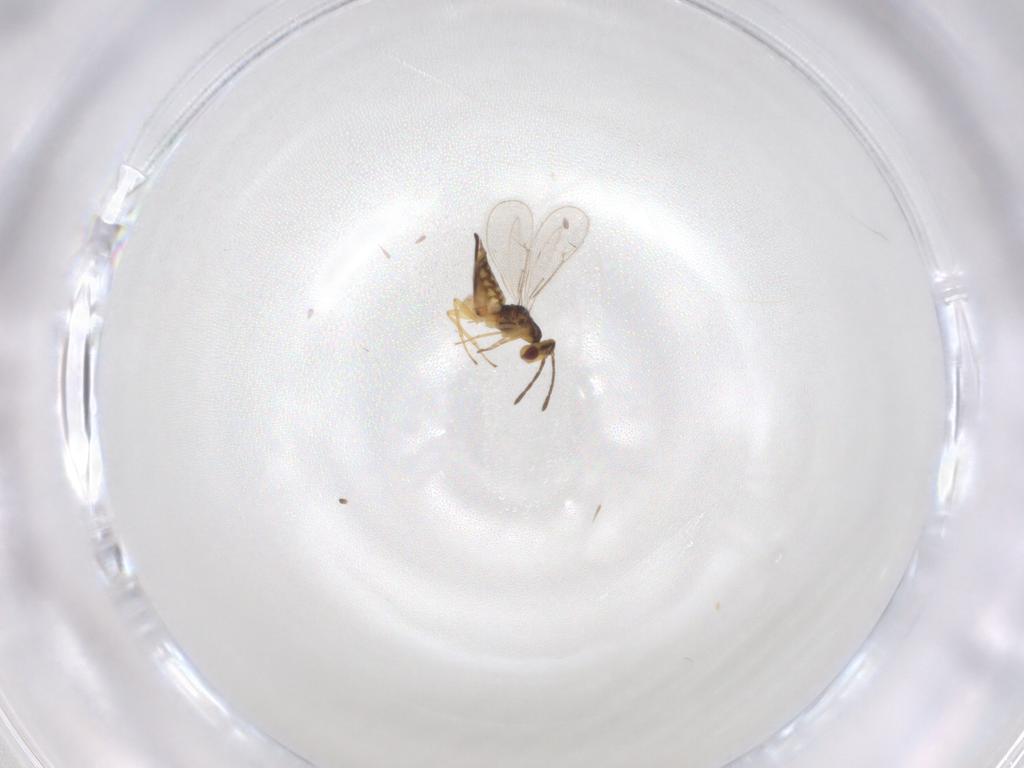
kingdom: Animalia
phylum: Arthropoda
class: Insecta
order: Hymenoptera
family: Eulophidae
